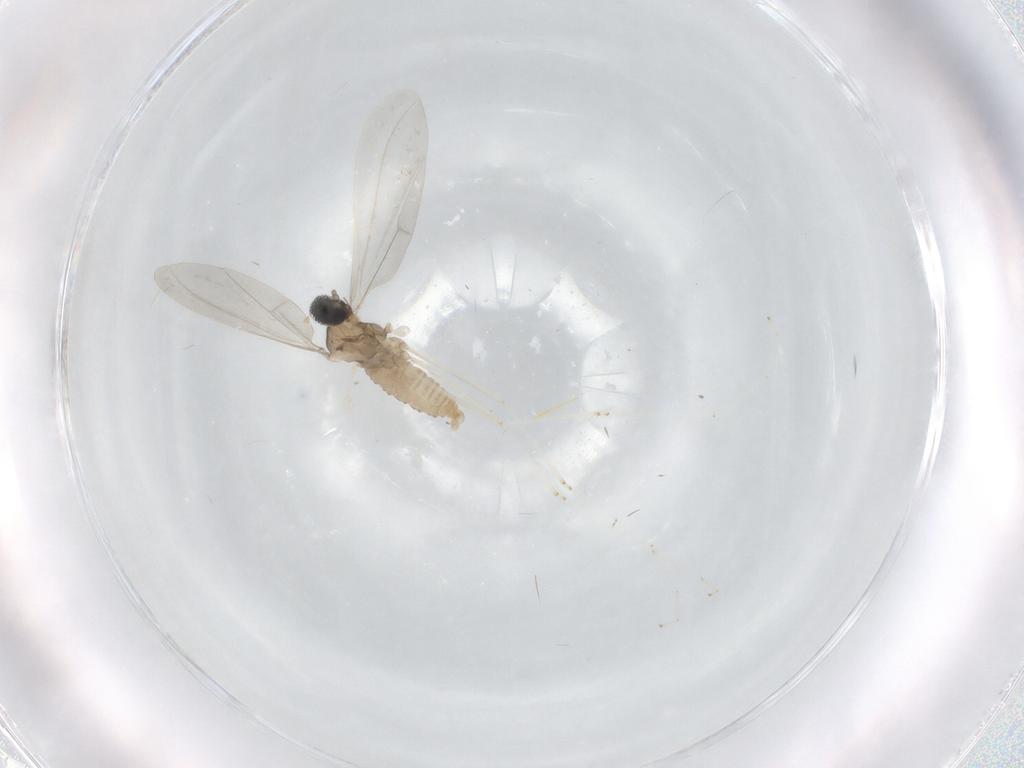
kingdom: Animalia
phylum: Arthropoda
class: Insecta
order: Diptera
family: Cecidomyiidae
